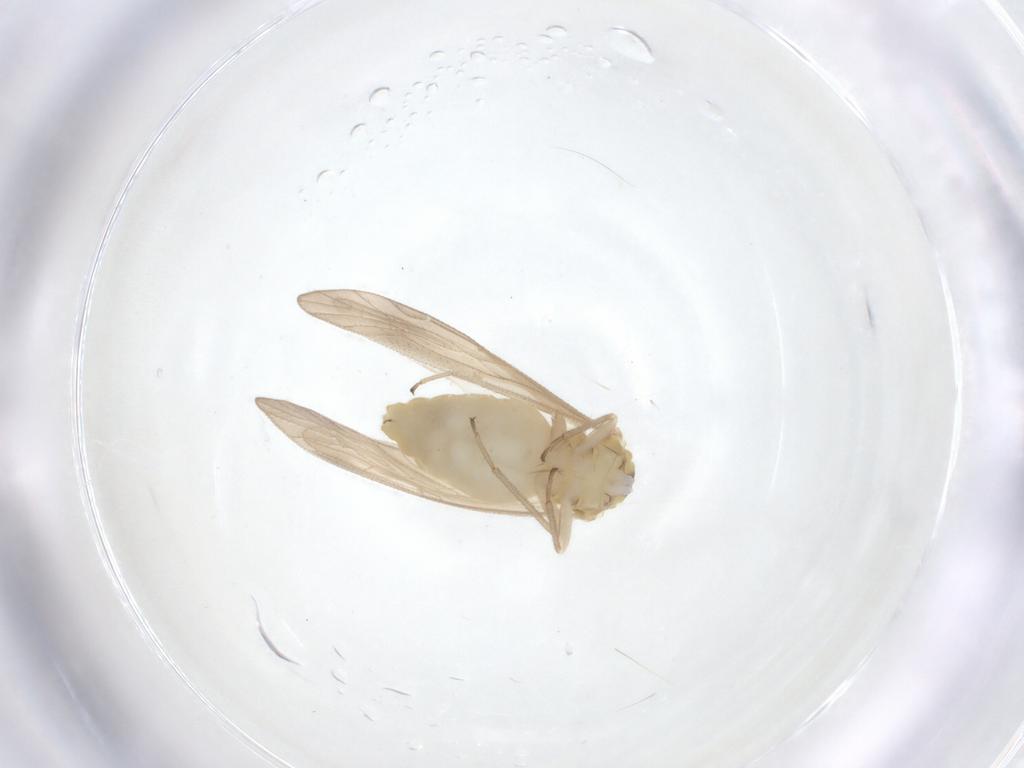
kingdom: Animalia
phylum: Arthropoda
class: Insecta
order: Psocodea
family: Caeciliusidae
